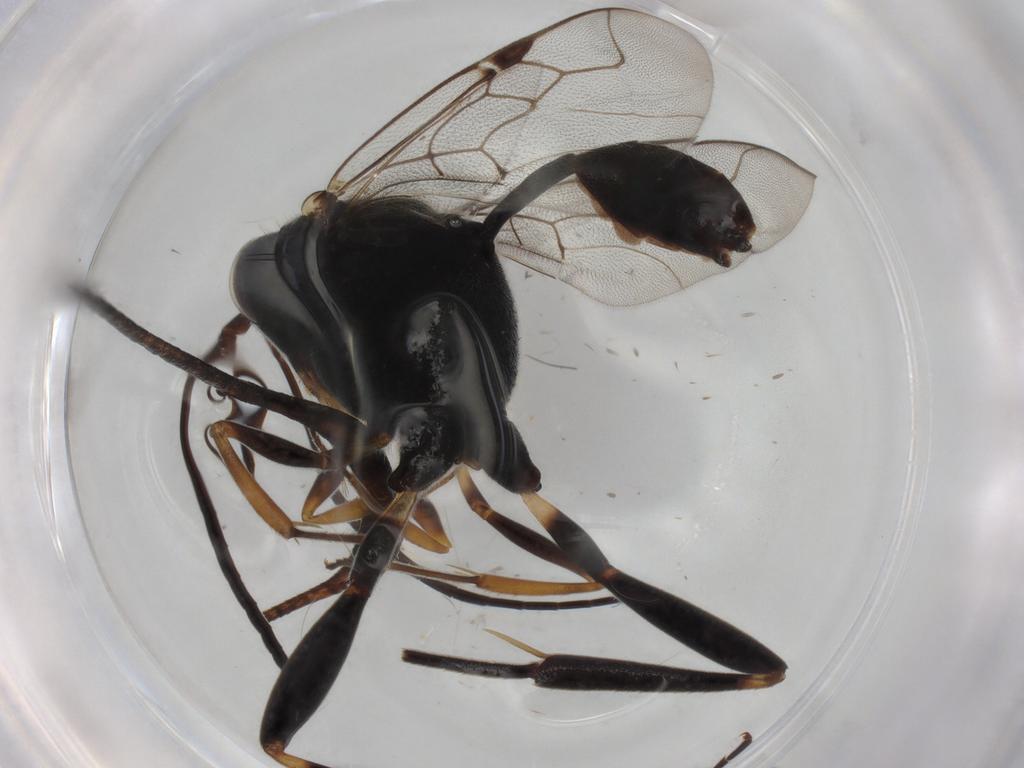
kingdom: Animalia
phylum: Arthropoda
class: Insecta
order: Hymenoptera
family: Evaniidae
